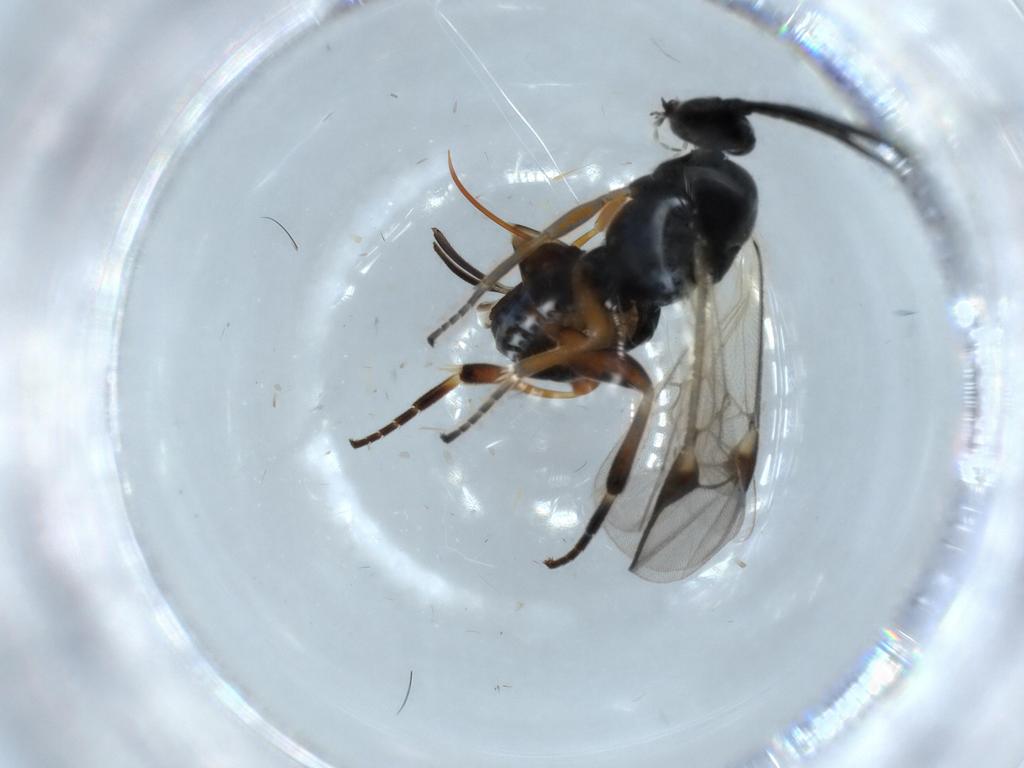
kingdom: Animalia
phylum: Arthropoda
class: Insecta
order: Hymenoptera
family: Braconidae
